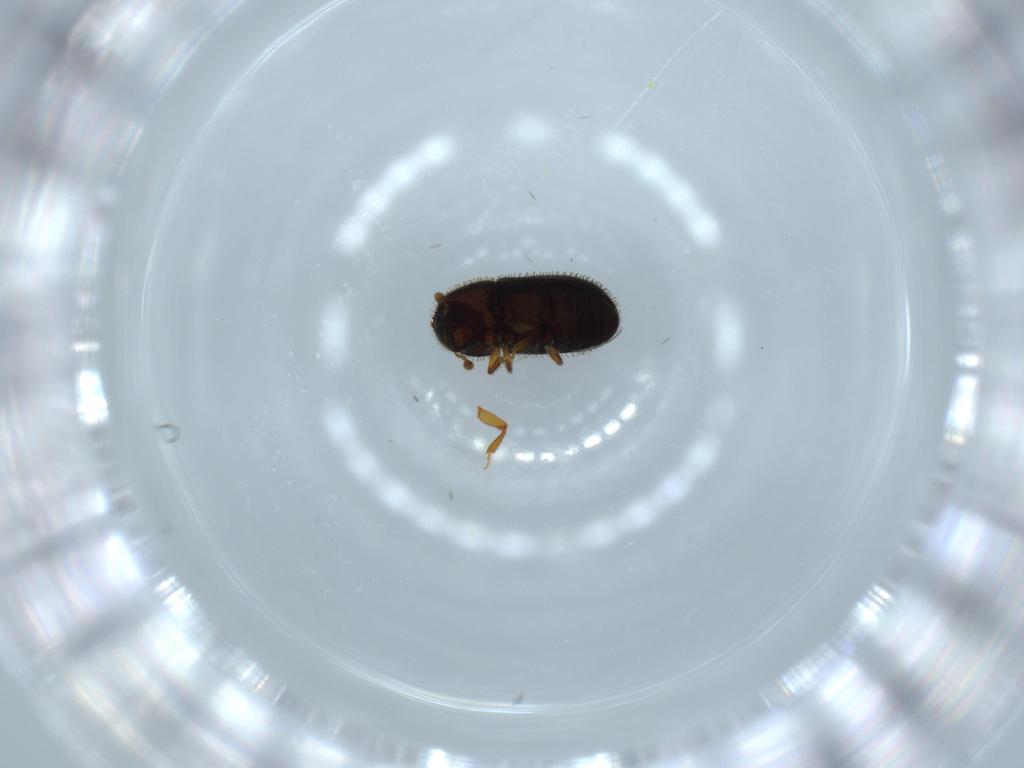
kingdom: Animalia
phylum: Arthropoda
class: Insecta
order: Coleoptera
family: Curculionidae
